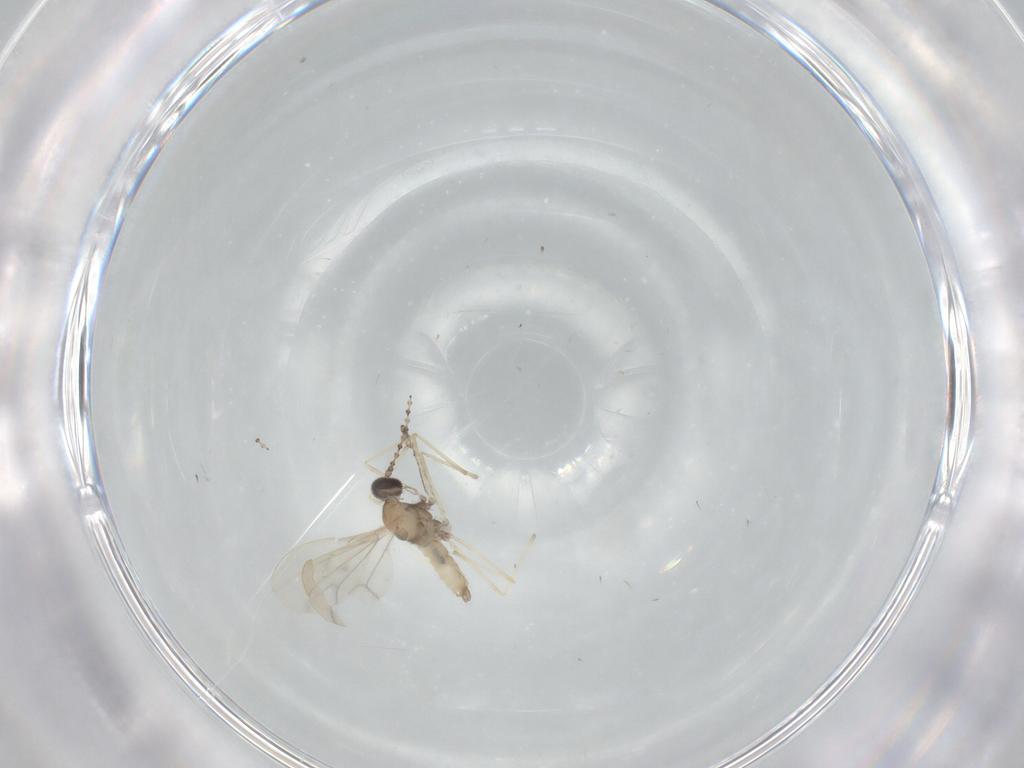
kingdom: Animalia
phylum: Arthropoda
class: Insecta
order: Diptera
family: Cecidomyiidae
